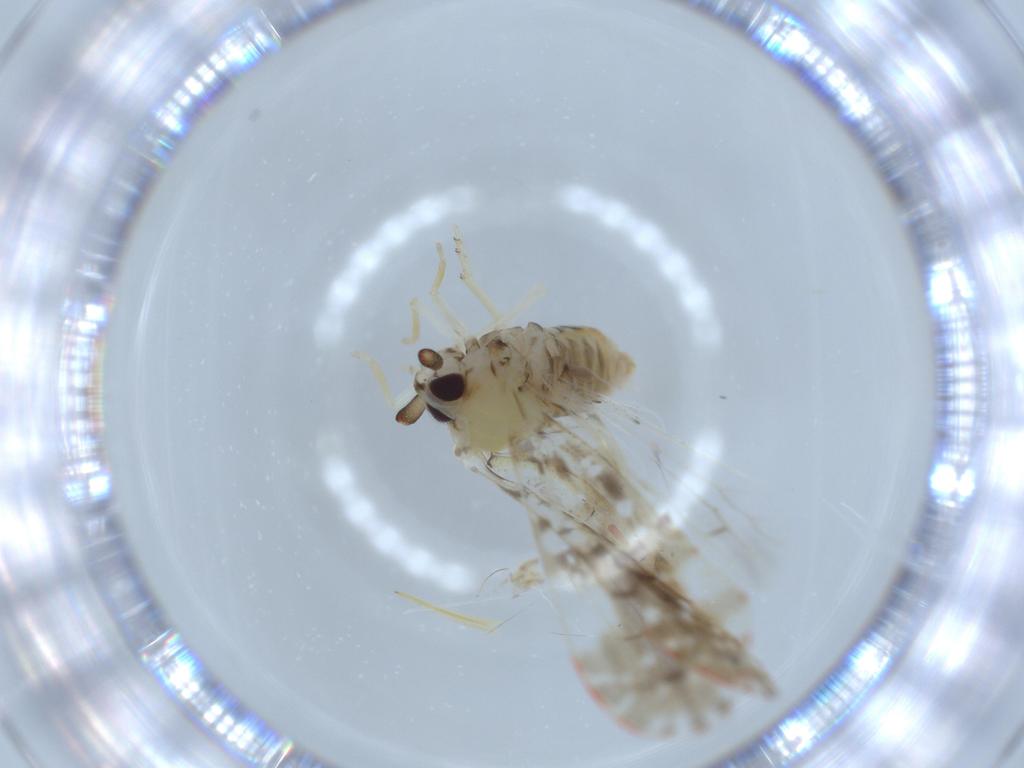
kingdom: Animalia
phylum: Arthropoda
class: Insecta
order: Hemiptera
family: Derbidae
